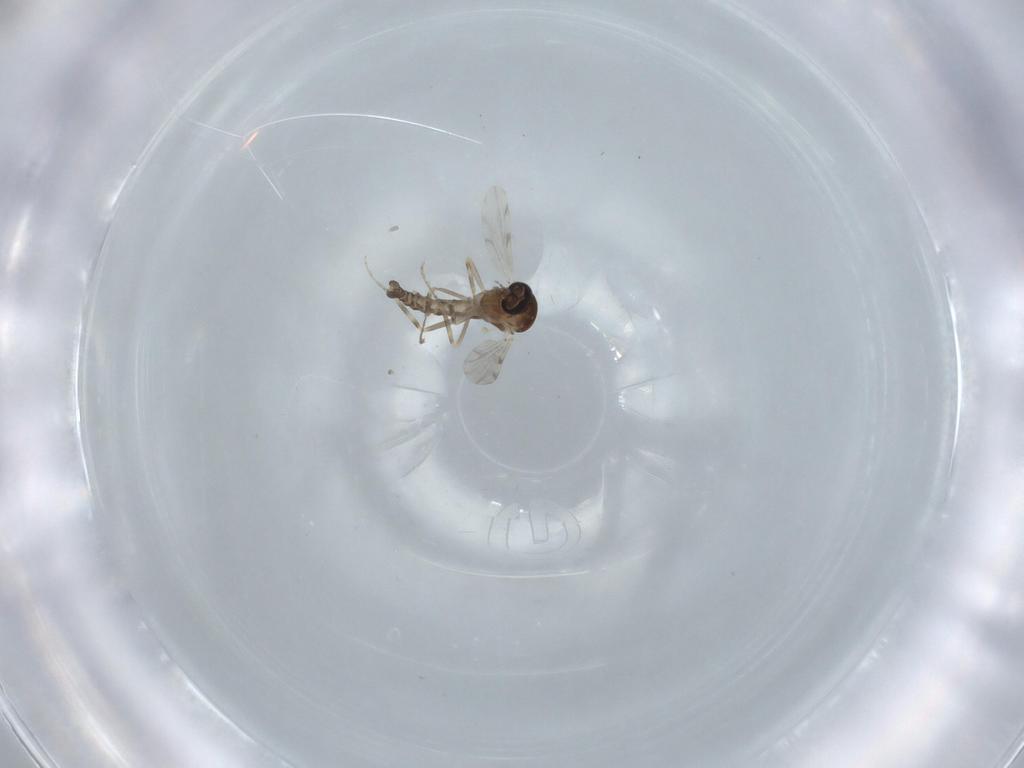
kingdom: Animalia
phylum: Arthropoda
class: Insecta
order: Diptera
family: Ceratopogonidae
